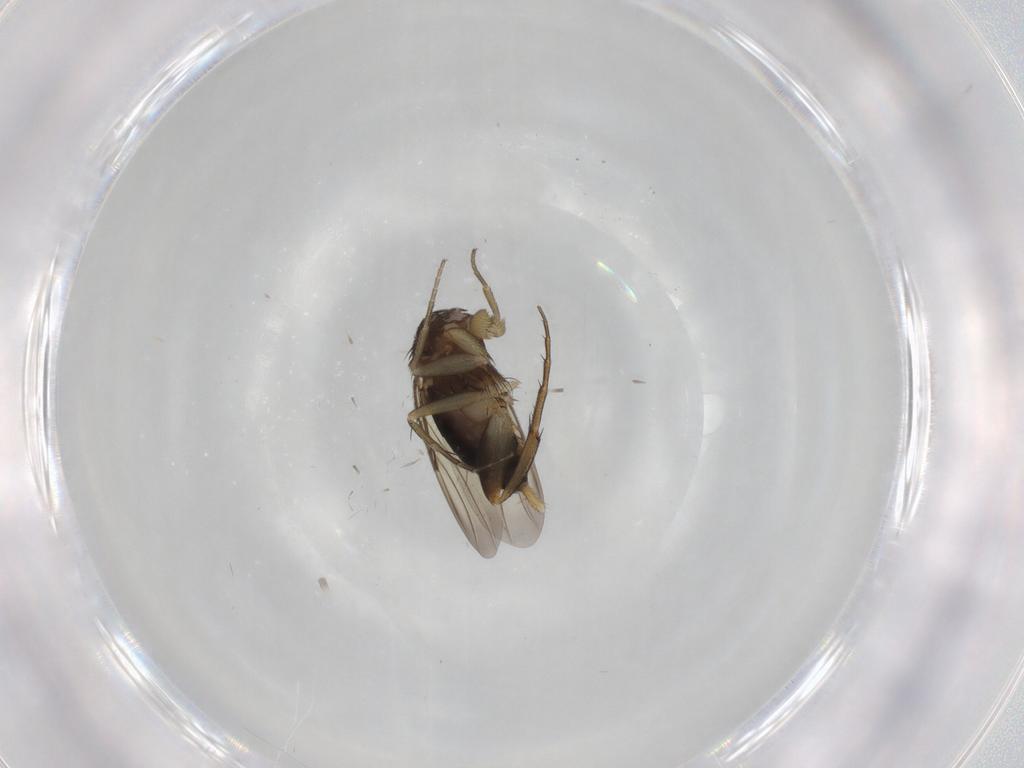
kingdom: Animalia
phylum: Arthropoda
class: Insecta
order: Diptera
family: Phoridae
